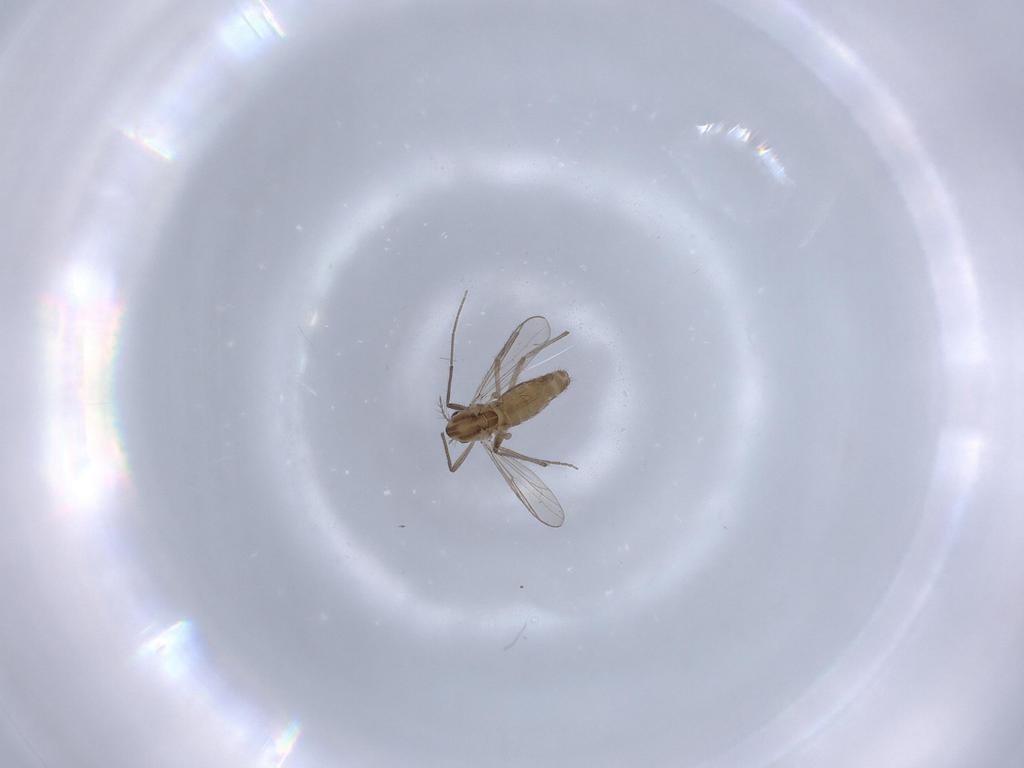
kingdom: Animalia
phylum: Arthropoda
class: Insecta
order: Diptera
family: Chironomidae
